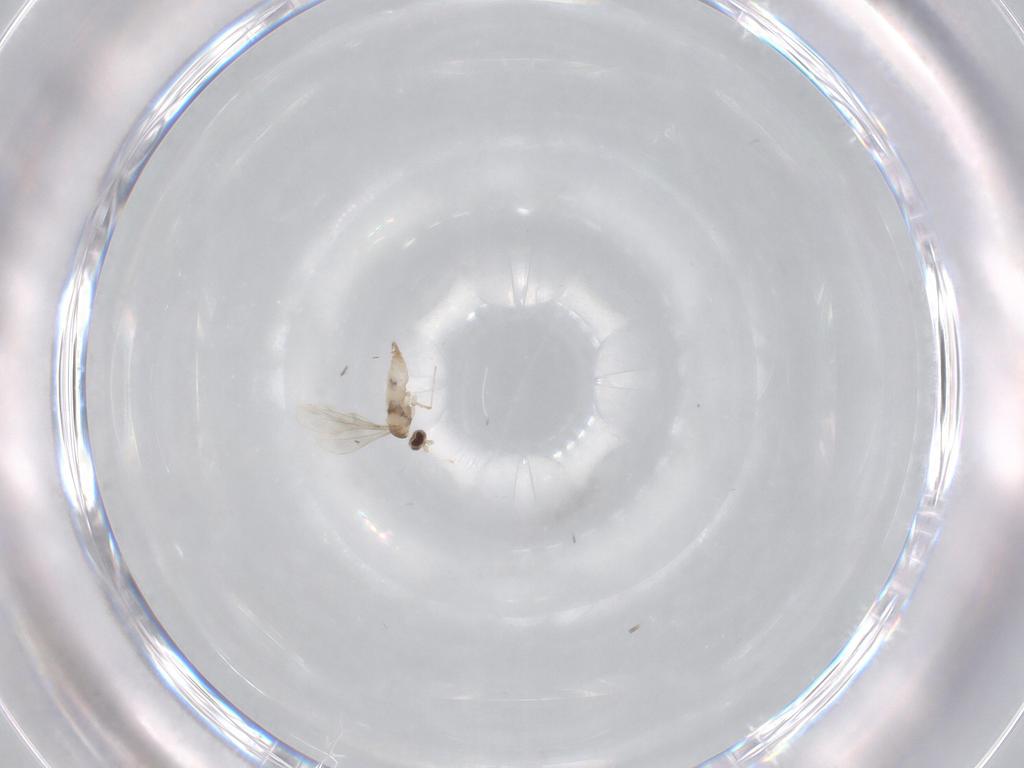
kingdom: Animalia
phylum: Arthropoda
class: Insecta
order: Diptera
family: Cecidomyiidae
